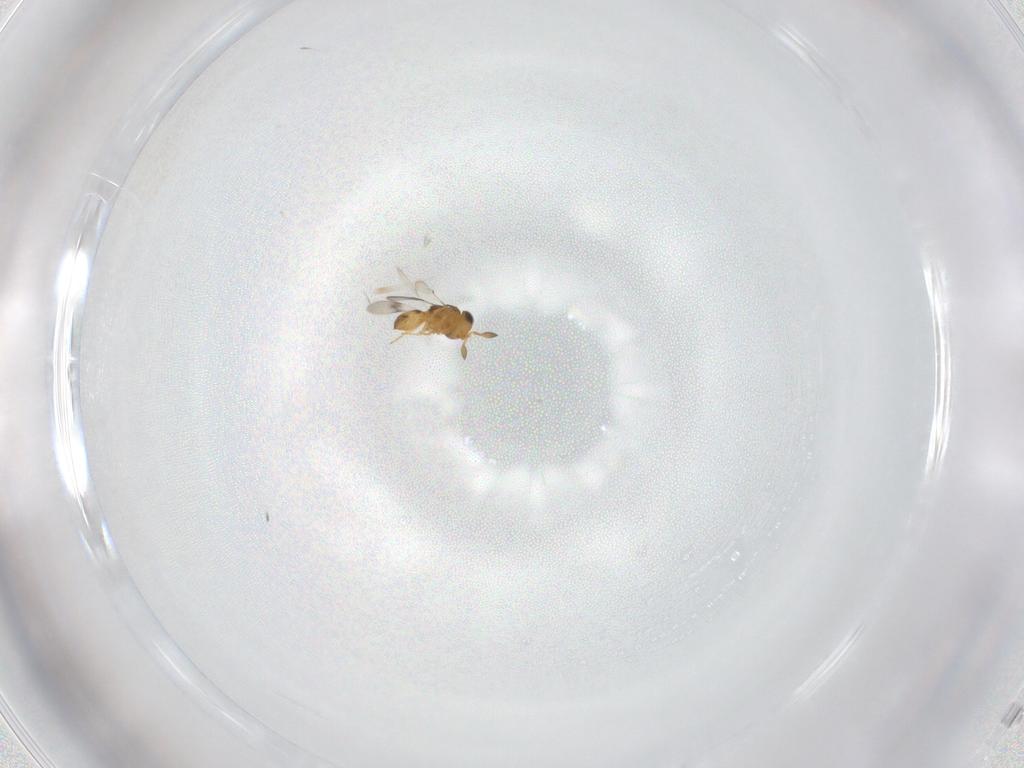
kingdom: Animalia
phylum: Arthropoda
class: Insecta
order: Hymenoptera
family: Scelionidae
